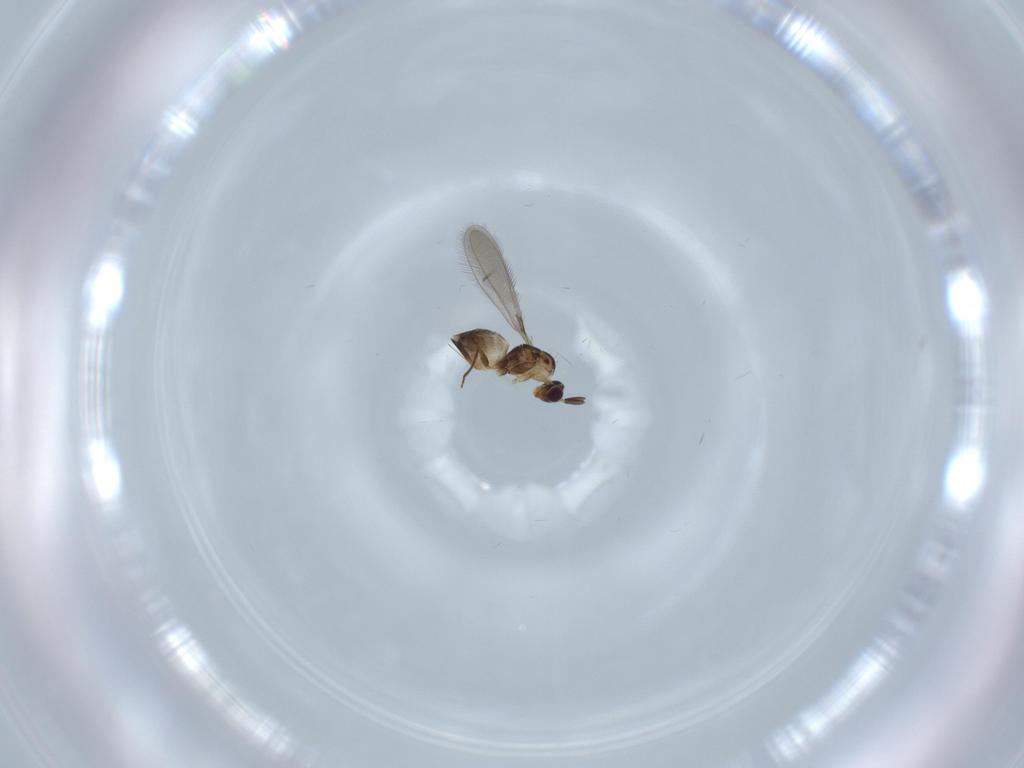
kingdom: Animalia
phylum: Arthropoda
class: Insecta
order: Hymenoptera
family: Mymaridae
